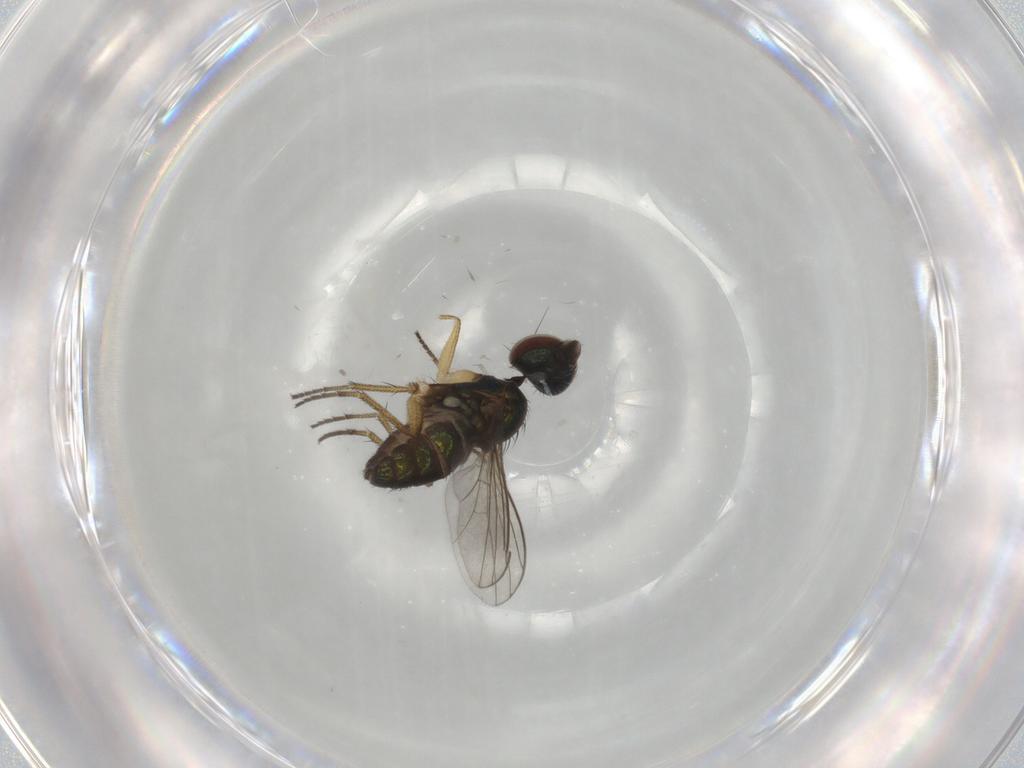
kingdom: Animalia
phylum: Arthropoda
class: Insecta
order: Diptera
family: Dolichopodidae
